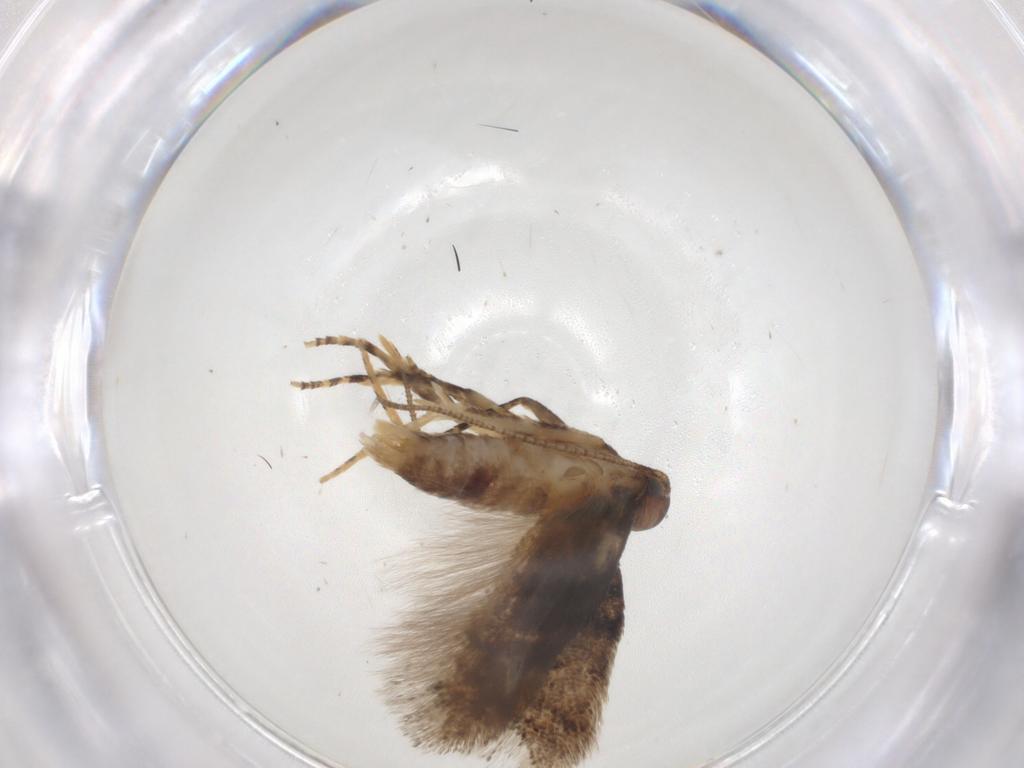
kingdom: Animalia
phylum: Arthropoda
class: Insecta
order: Lepidoptera
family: Gelechiidae
